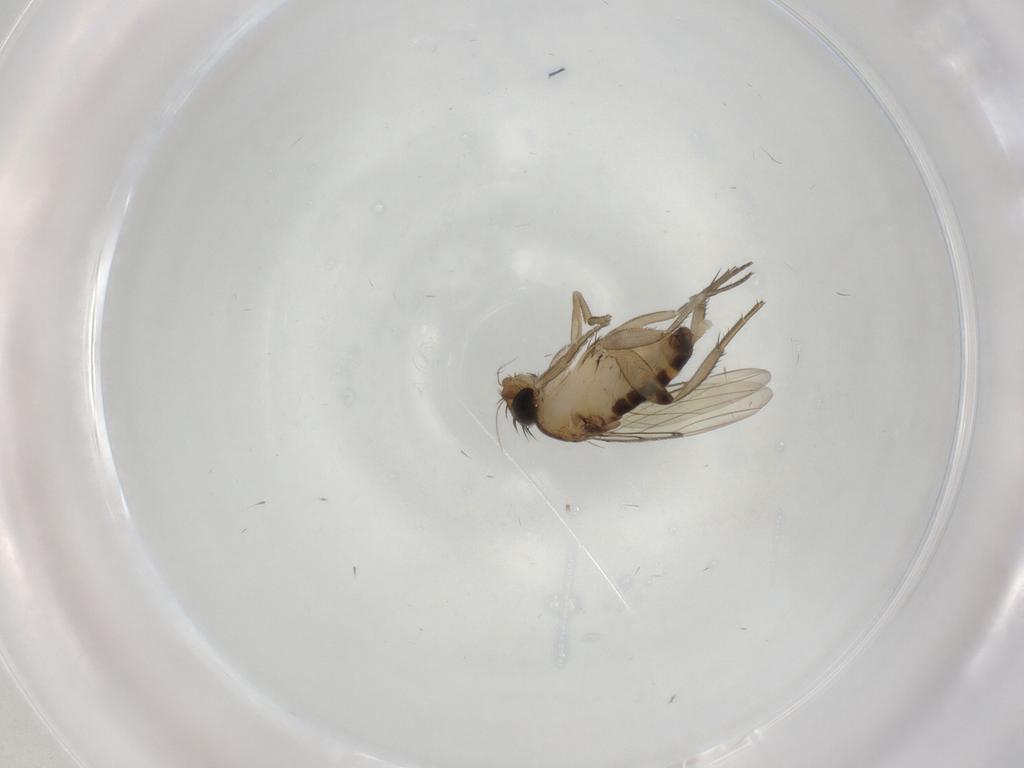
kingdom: Animalia
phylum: Arthropoda
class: Insecta
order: Diptera
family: Phoridae
